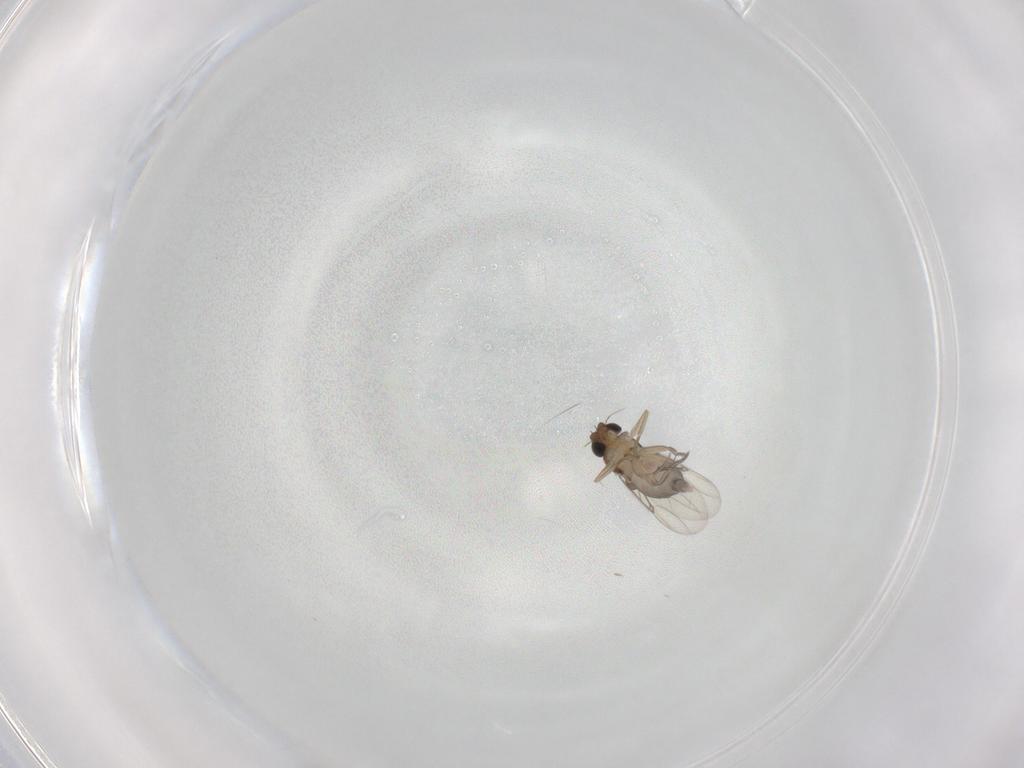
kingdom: Animalia
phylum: Arthropoda
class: Insecta
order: Diptera
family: Phoridae
